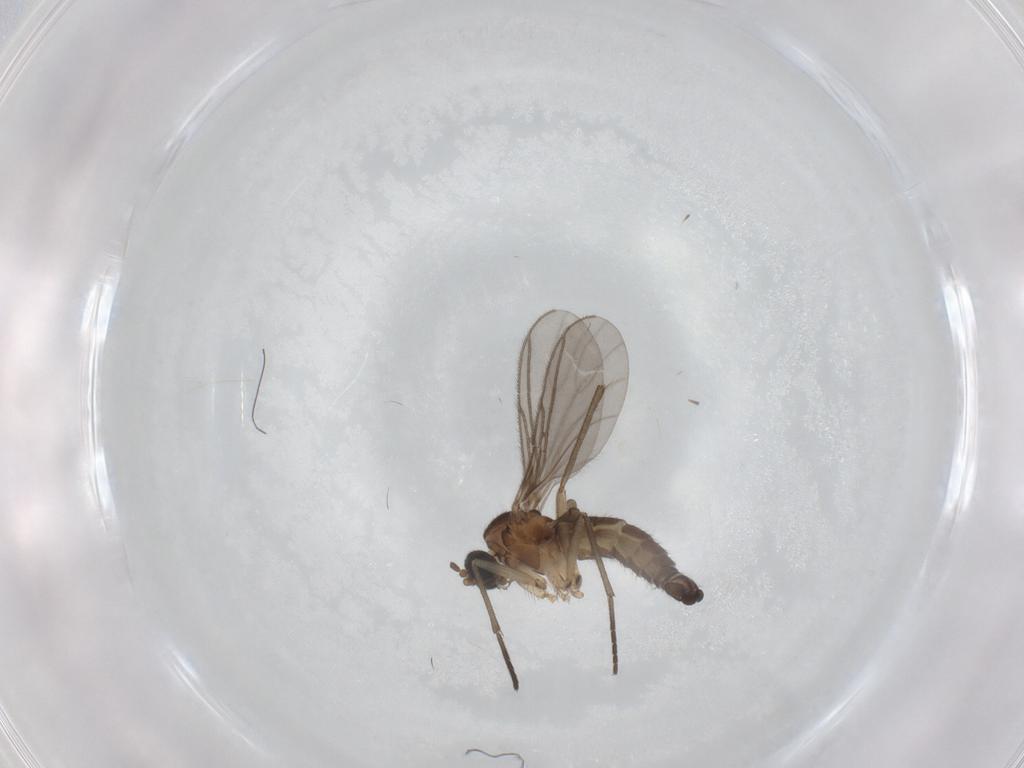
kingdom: Animalia
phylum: Arthropoda
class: Insecta
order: Diptera
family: Sciaridae
